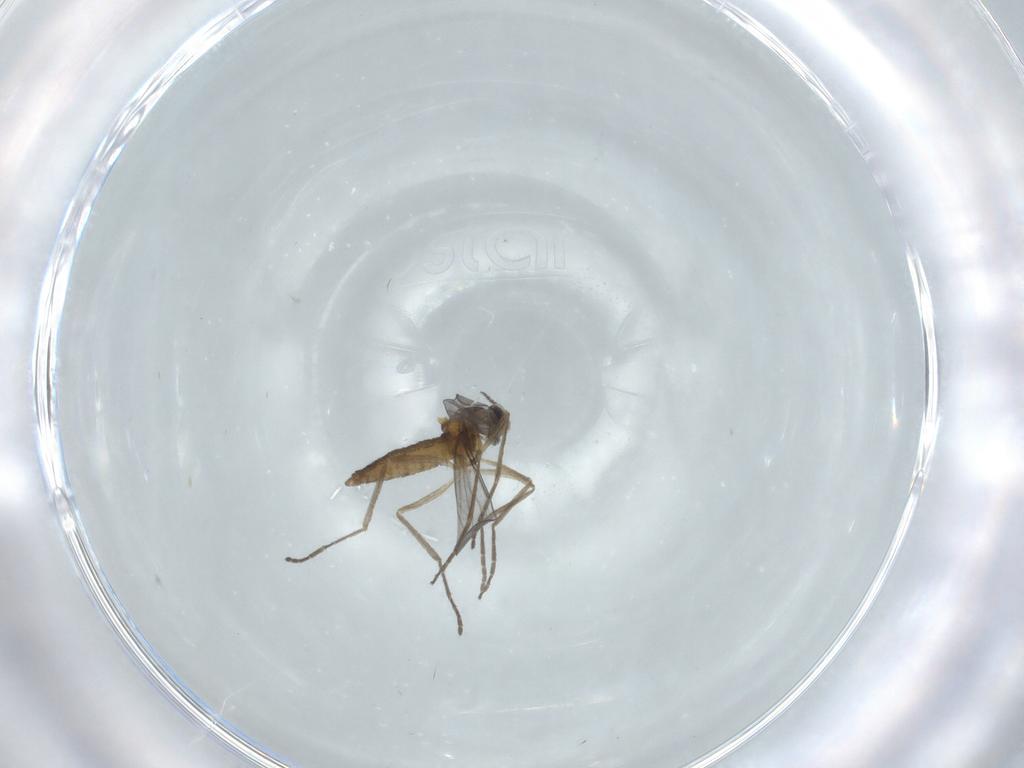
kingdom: Animalia
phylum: Arthropoda
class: Insecta
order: Diptera
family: Cecidomyiidae
